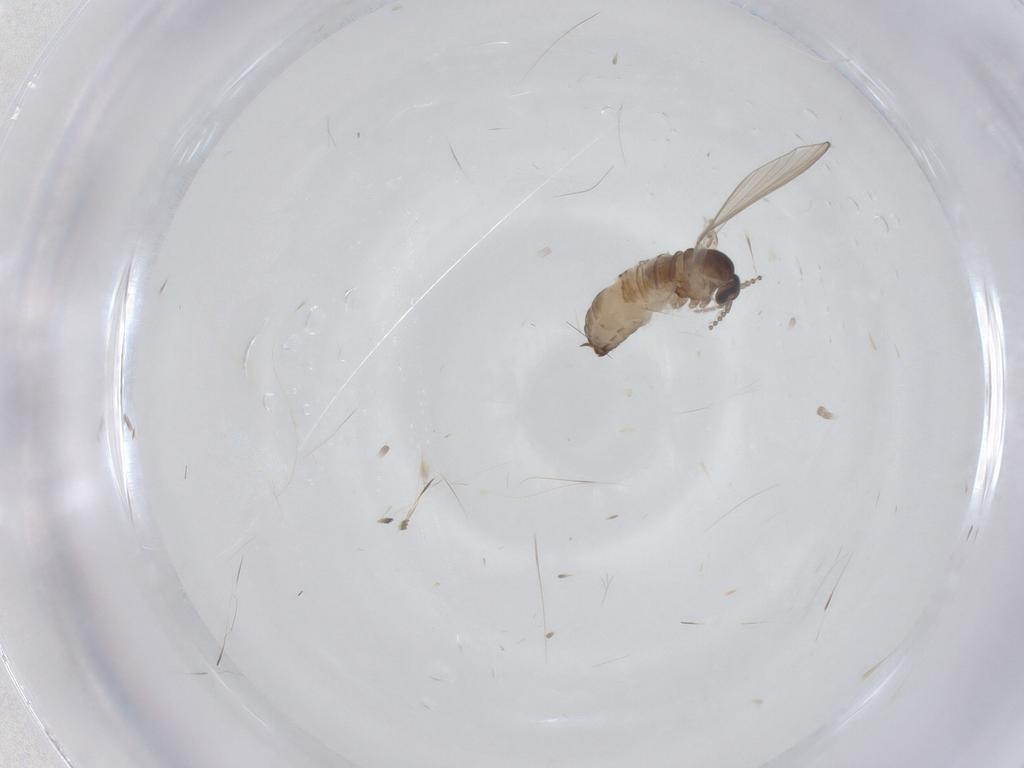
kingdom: Animalia
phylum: Arthropoda
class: Insecta
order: Diptera
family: Psychodidae
